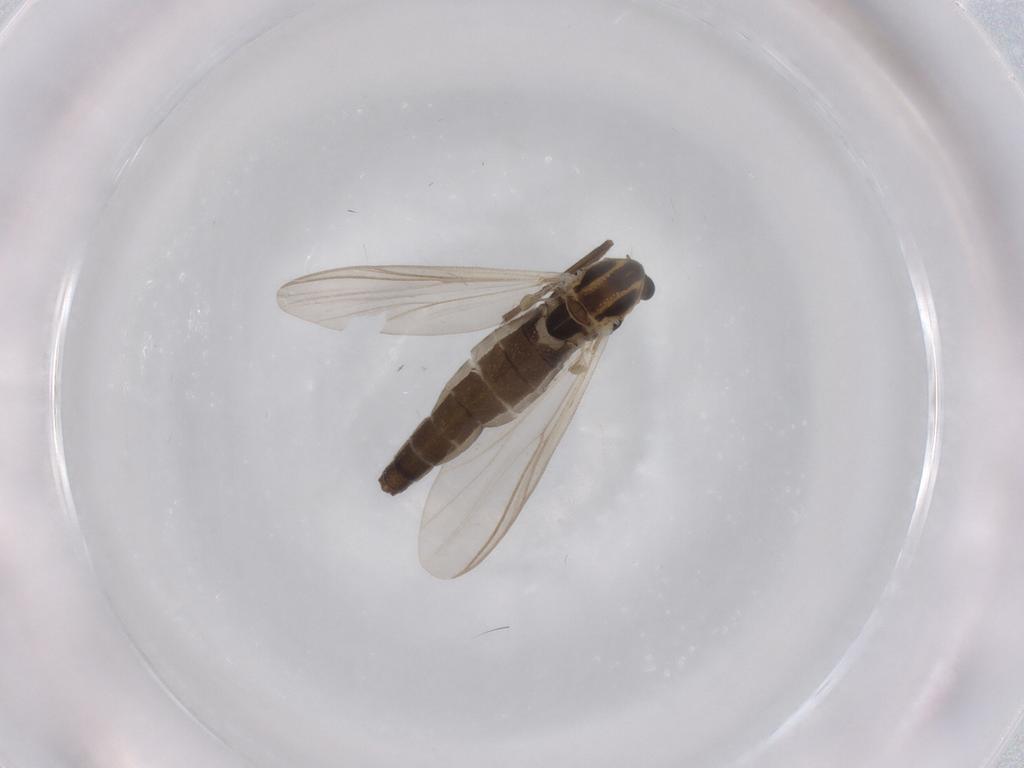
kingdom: Animalia
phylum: Arthropoda
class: Insecta
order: Diptera
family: Chironomidae
